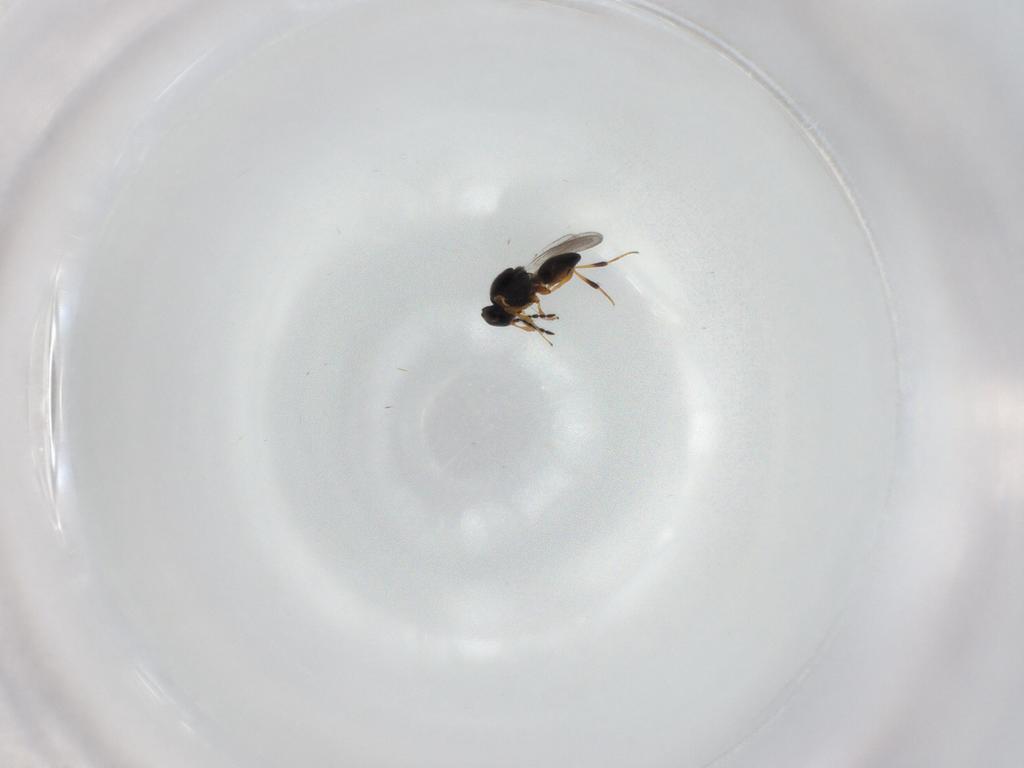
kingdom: Animalia
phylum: Arthropoda
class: Insecta
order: Hymenoptera
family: Platygastridae
